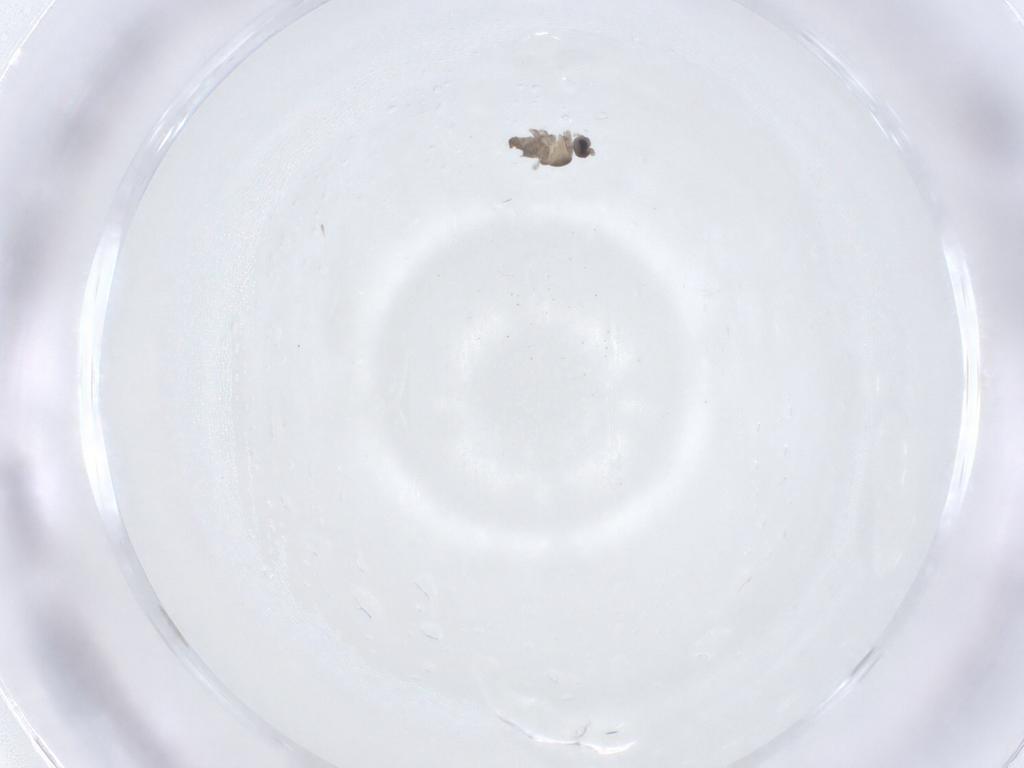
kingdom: Animalia
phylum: Arthropoda
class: Insecta
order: Diptera
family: Cecidomyiidae
